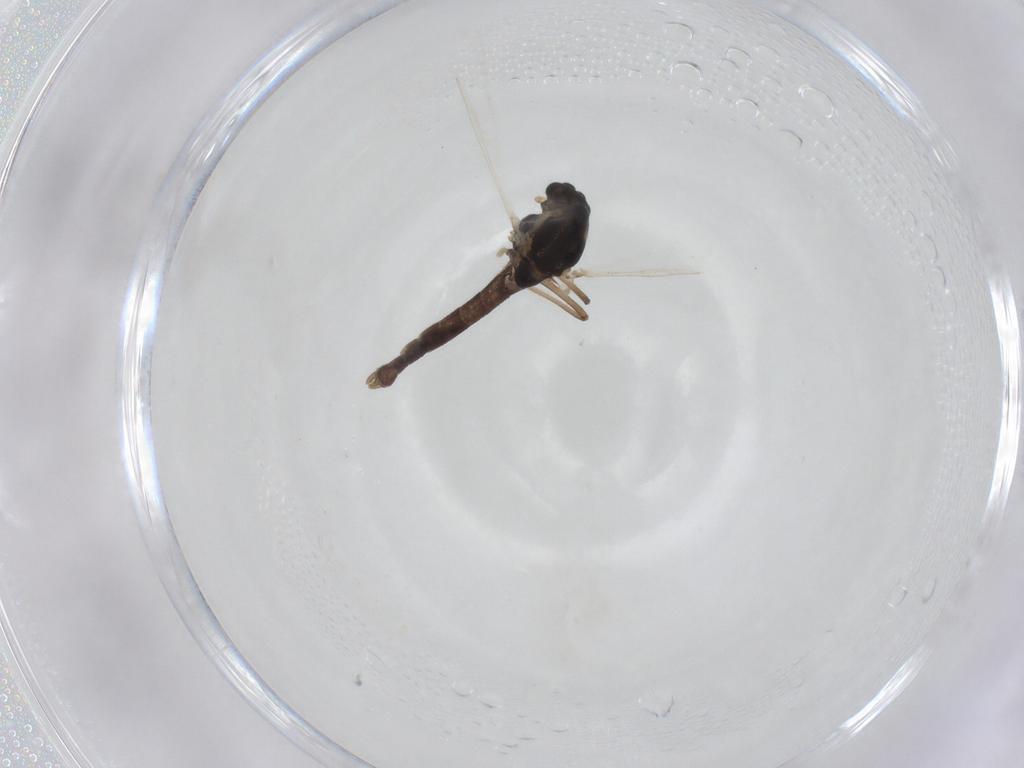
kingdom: Animalia
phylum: Arthropoda
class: Insecta
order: Diptera
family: Chironomidae
